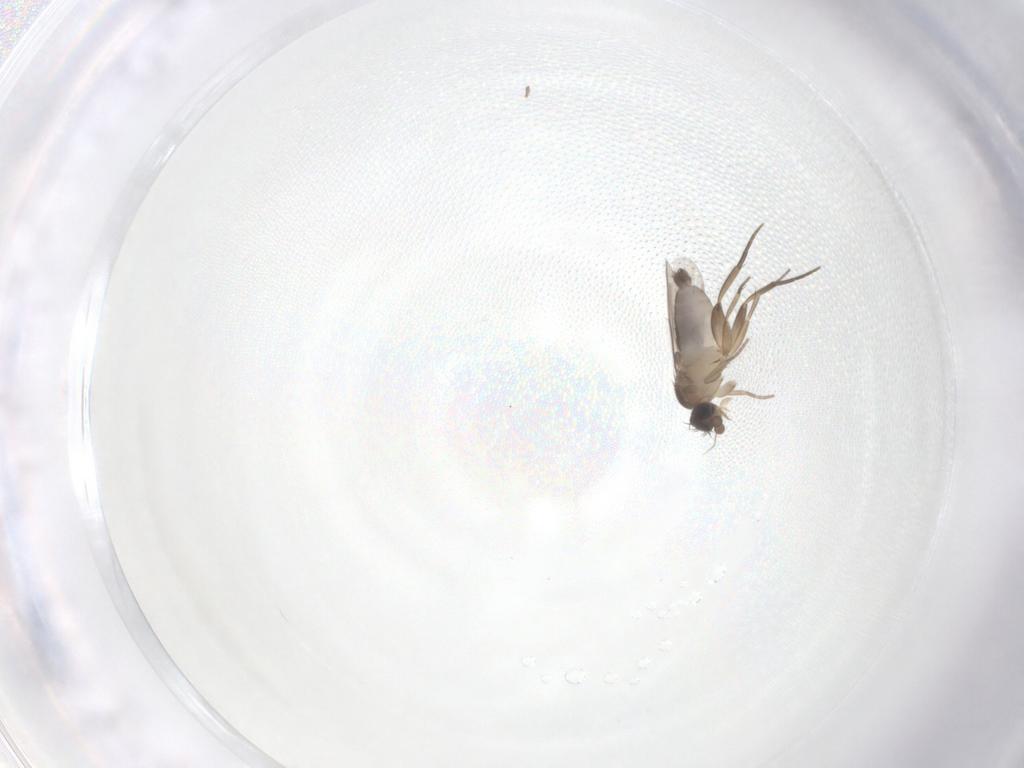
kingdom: Animalia
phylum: Arthropoda
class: Insecta
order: Diptera
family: Phoridae
